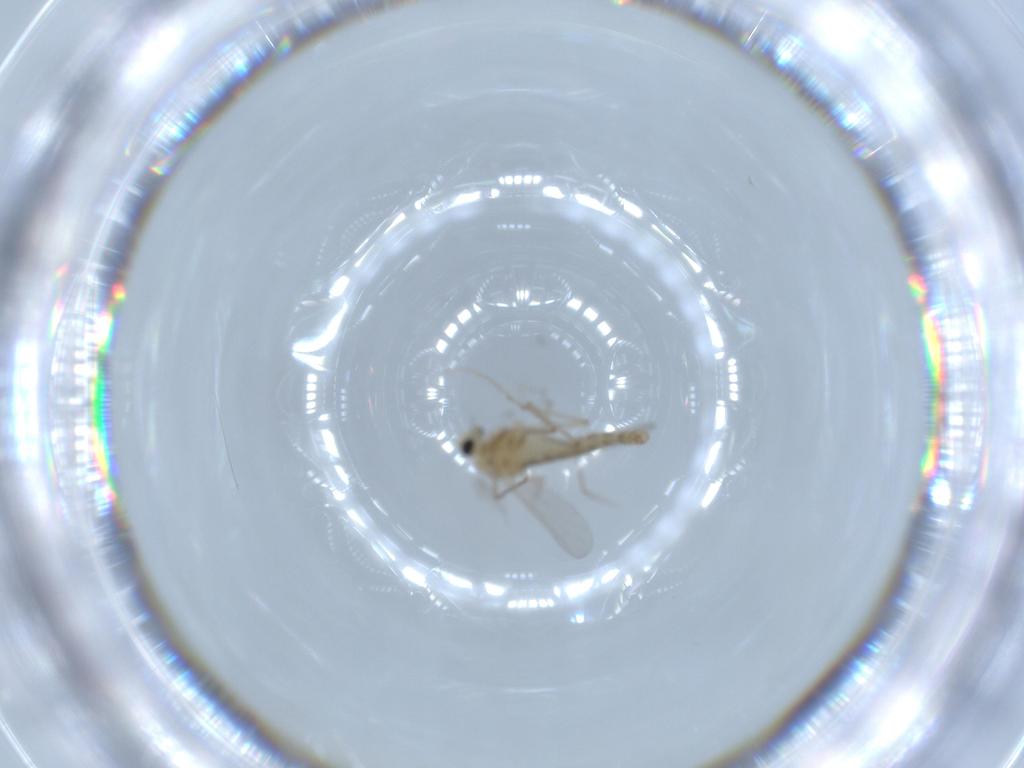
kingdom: Animalia
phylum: Arthropoda
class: Insecta
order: Diptera
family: Chironomidae
